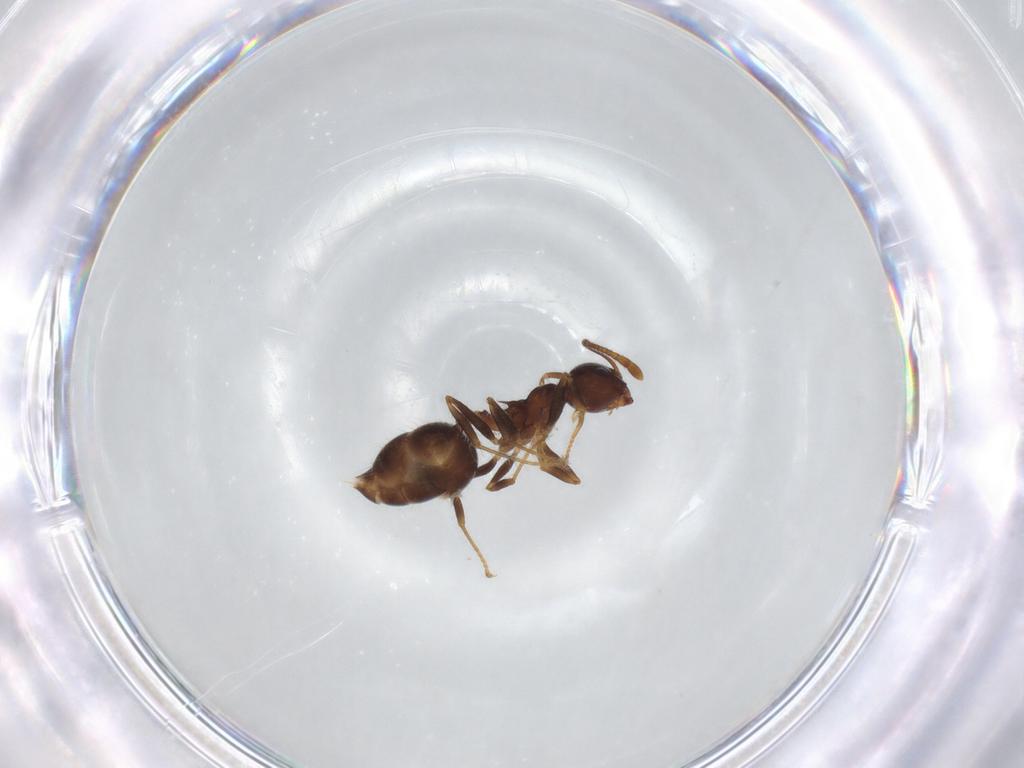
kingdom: Animalia
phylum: Arthropoda
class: Insecta
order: Hymenoptera
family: Formicidae
